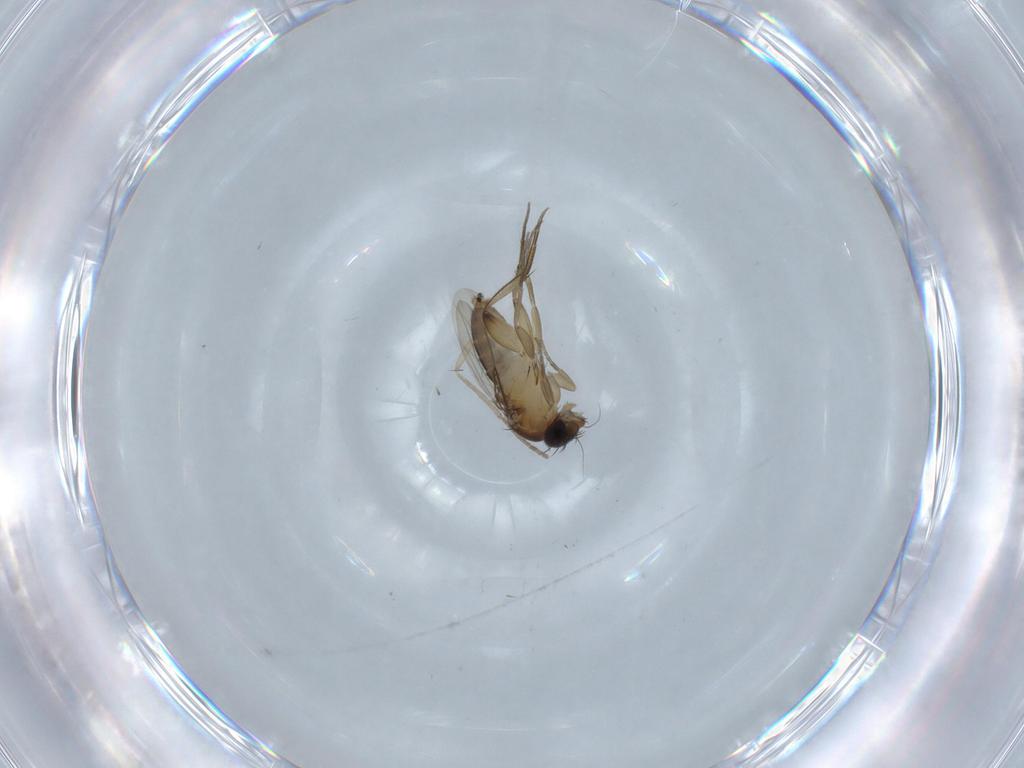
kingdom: Animalia
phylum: Arthropoda
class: Insecta
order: Diptera
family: Phoridae
